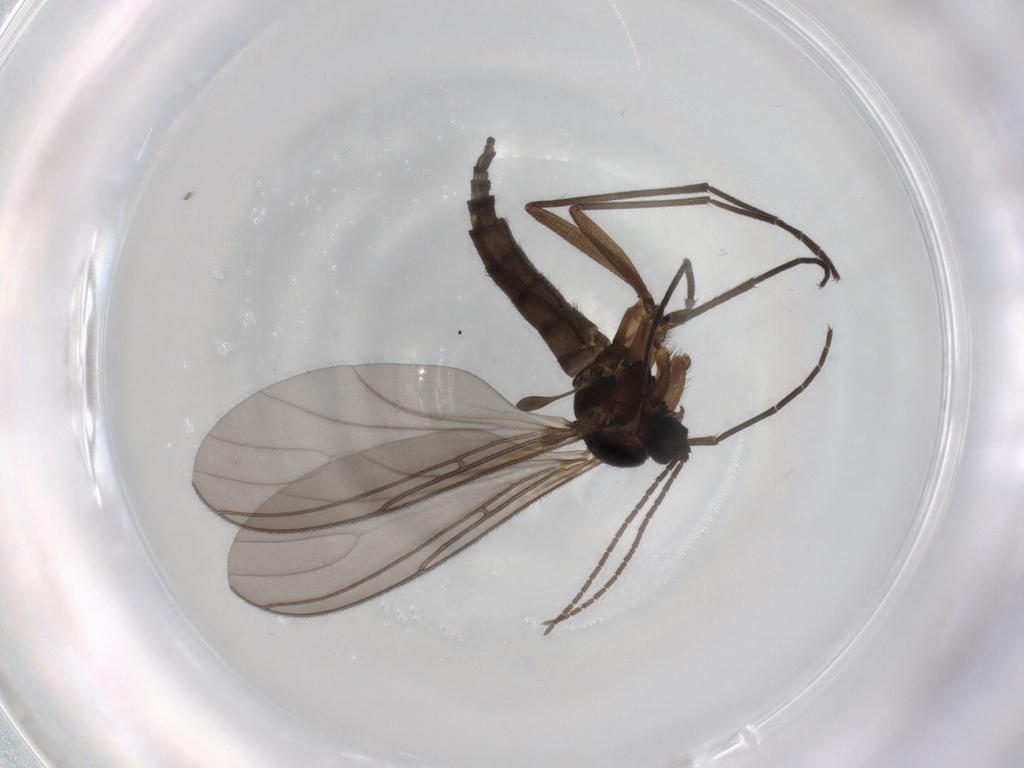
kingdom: Animalia
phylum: Arthropoda
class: Insecta
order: Diptera
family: Sciaridae
